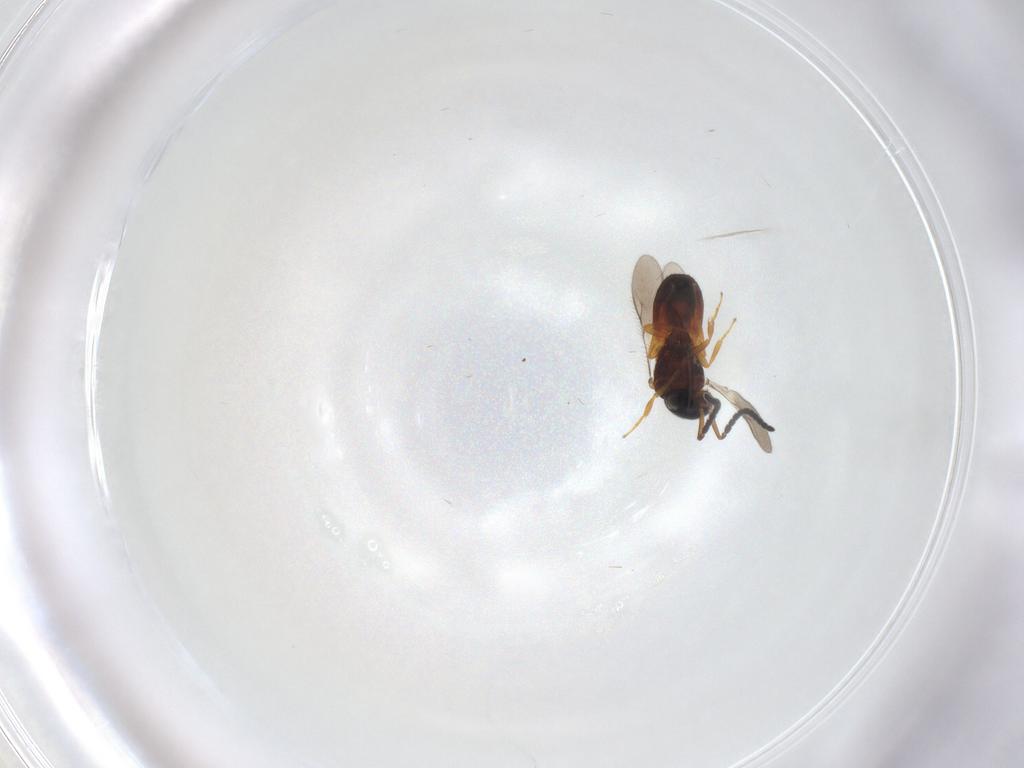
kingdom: Animalia
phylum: Arthropoda
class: Insecta
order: Hymenoptera
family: Scelionidae
